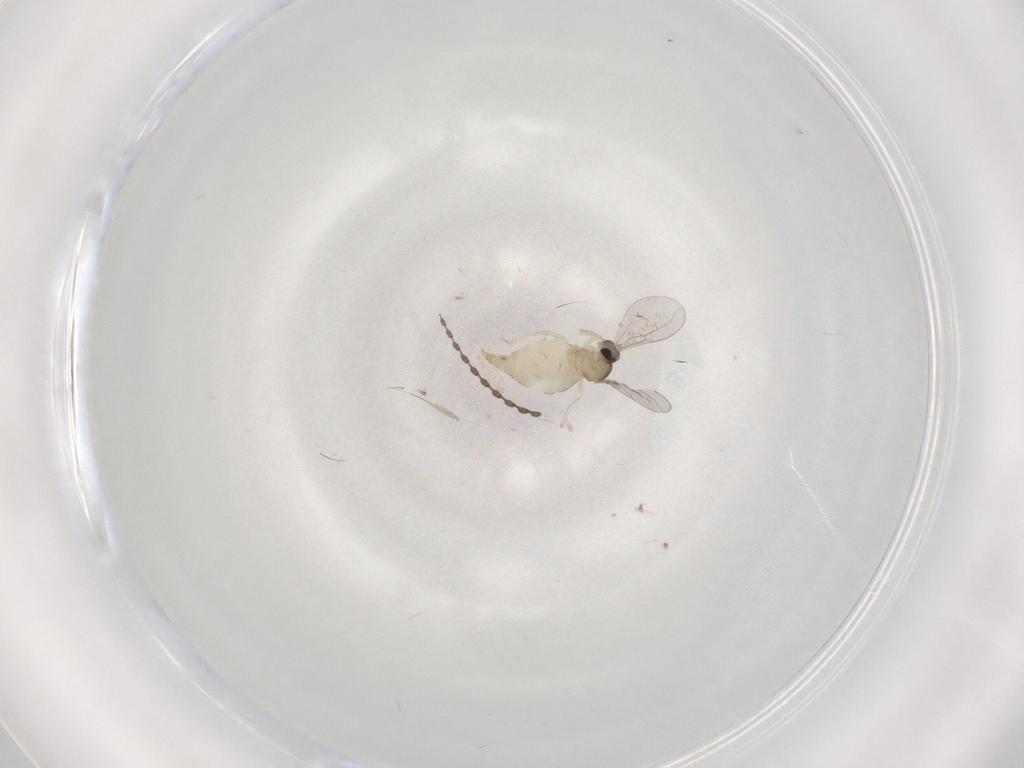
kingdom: Animalia
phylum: Arthropoda
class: Insecta
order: Diptera
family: Cecidomyiidae
